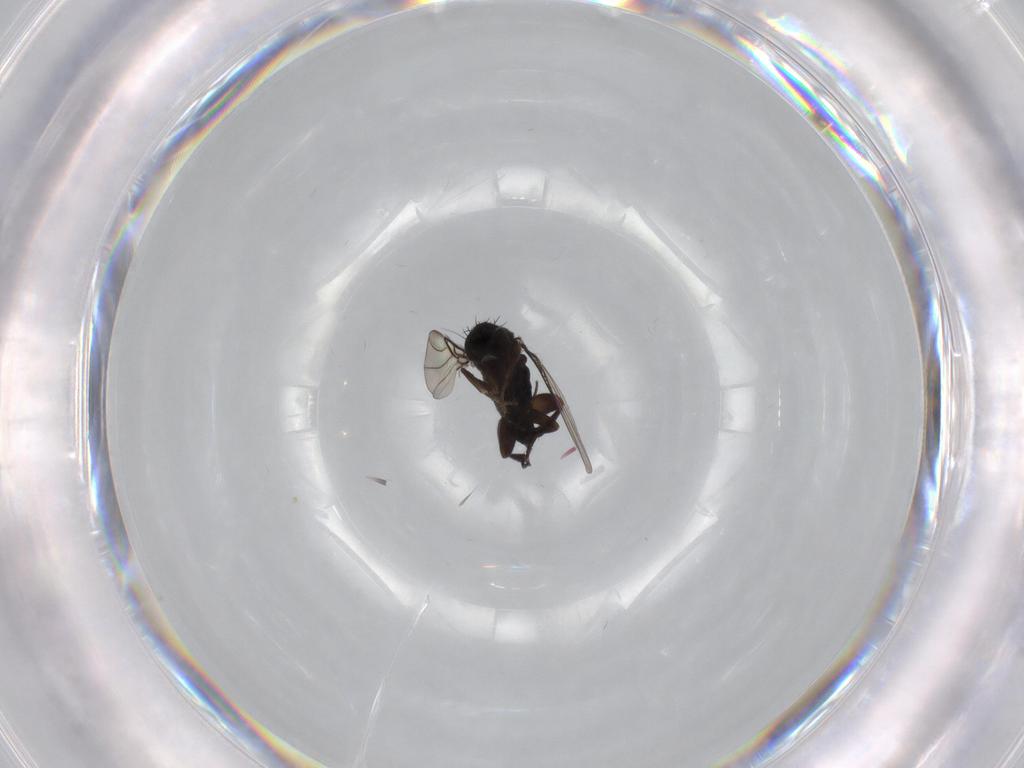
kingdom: Animalia
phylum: Arthropoda
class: Insecta
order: Diptera
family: Phoridae
